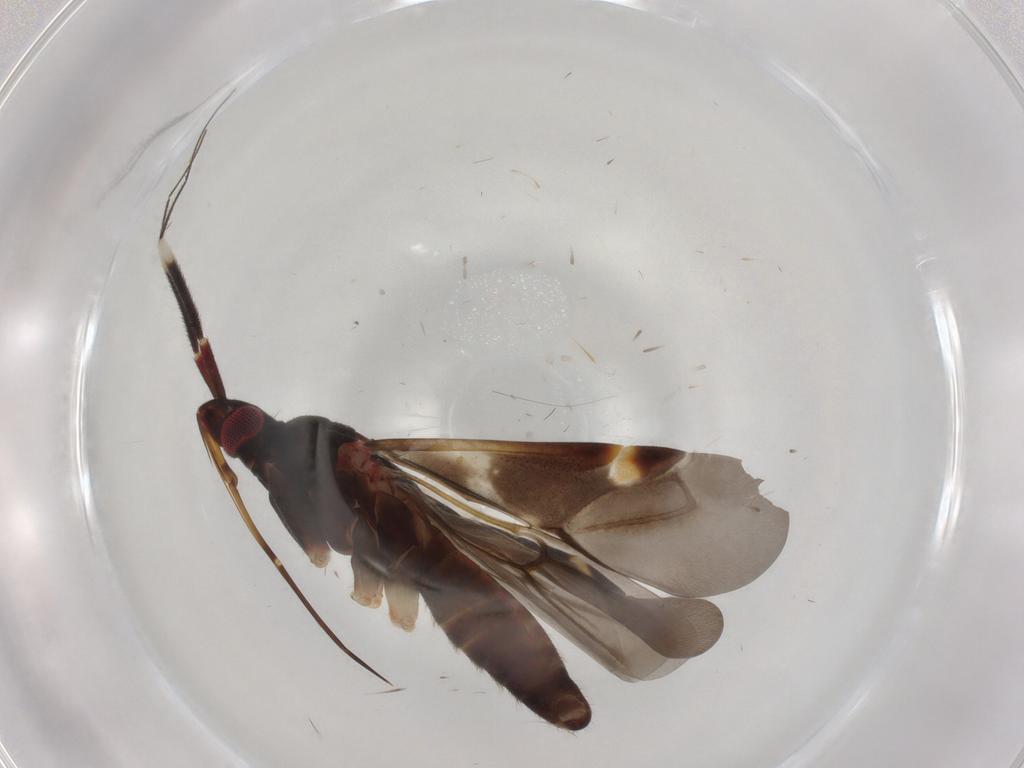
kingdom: Animalia
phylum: Arthropoda
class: Insecta
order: Hemiptera
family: Miridae
